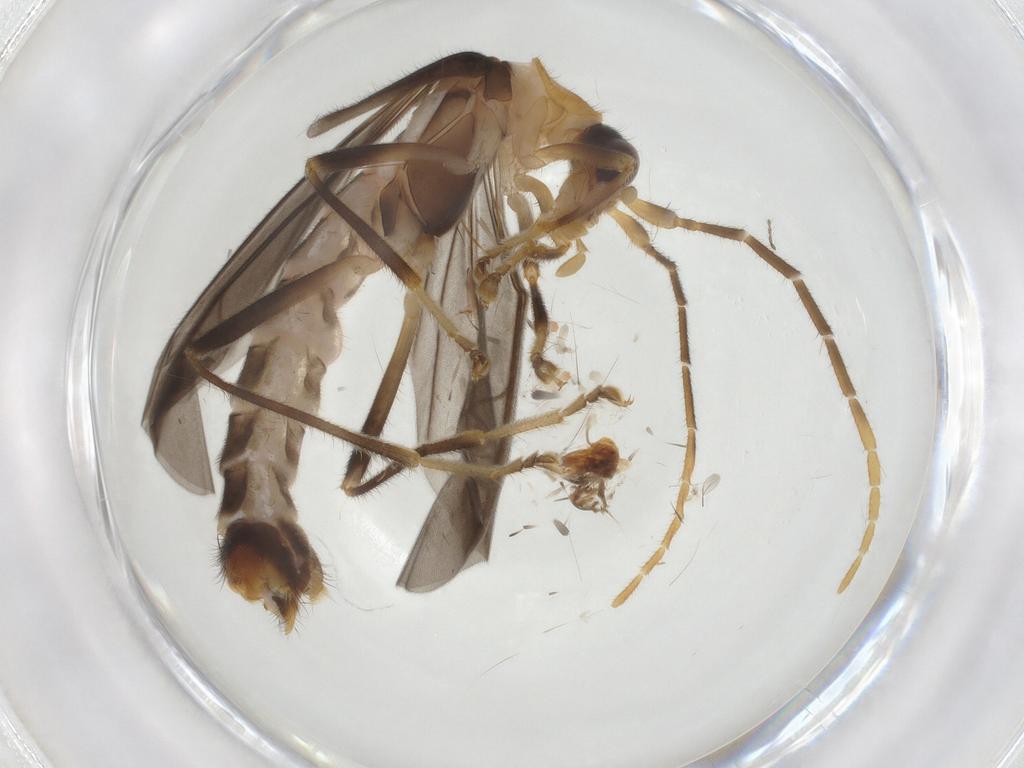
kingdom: Animalia
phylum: Arthropoda
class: Insecta
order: Coleoptera
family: Cantharidae
